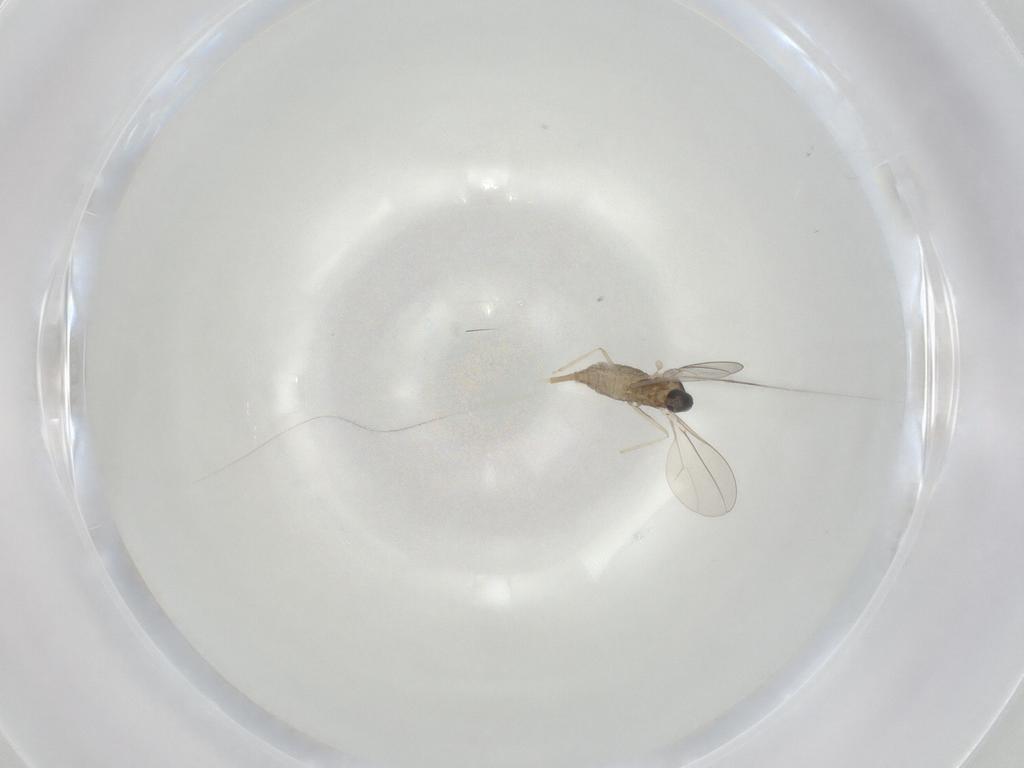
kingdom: Animalia
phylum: Arthropoda
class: Insecta
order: Diptera
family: Cecidomyiidae
